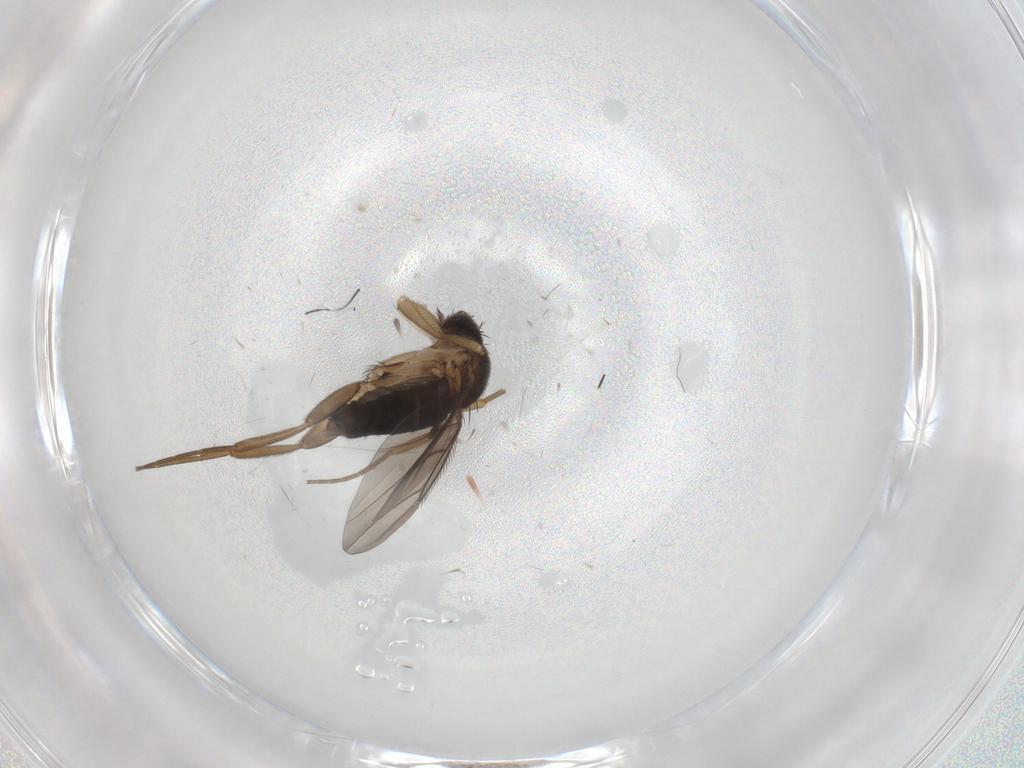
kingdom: Animalia
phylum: Arthropoda
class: Insecta
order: Diptera
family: Phoridae
